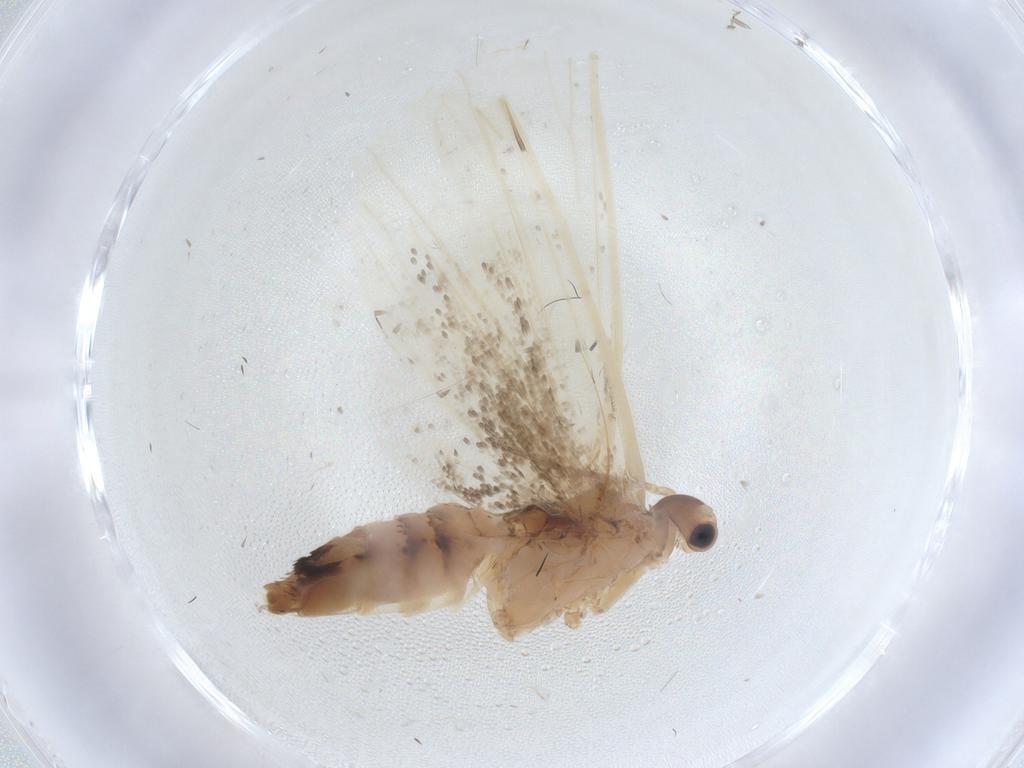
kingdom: Animalia
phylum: Arthropoda
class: Insecta
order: Lepidoptera
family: Dryadaulidae
